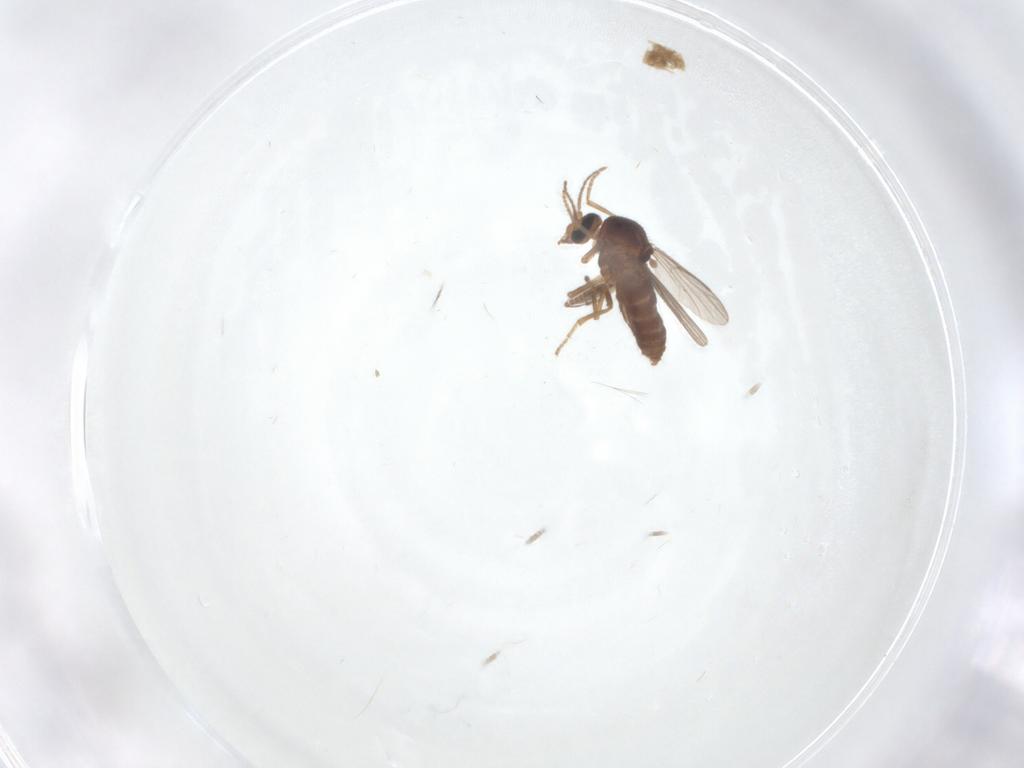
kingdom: Animalia
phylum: Arthropoda
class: Insecta
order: Diptera
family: Ceratopogonidae
